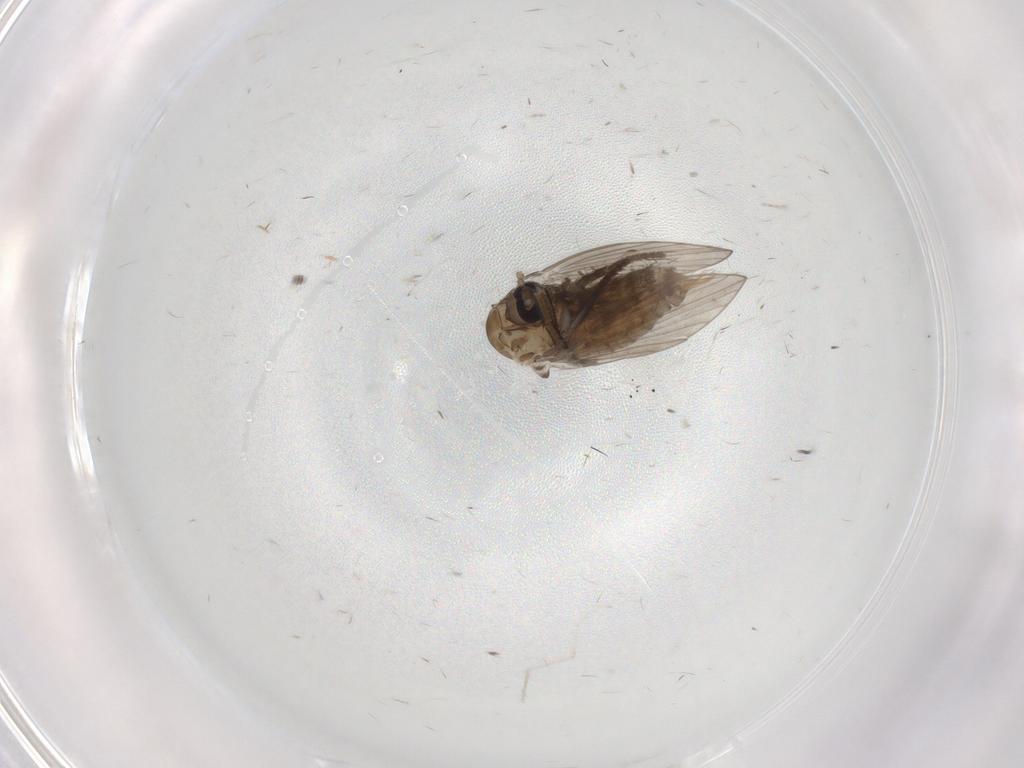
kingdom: Animalia
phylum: Arthropoda
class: Insecta
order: Diptera
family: Psychodidae
